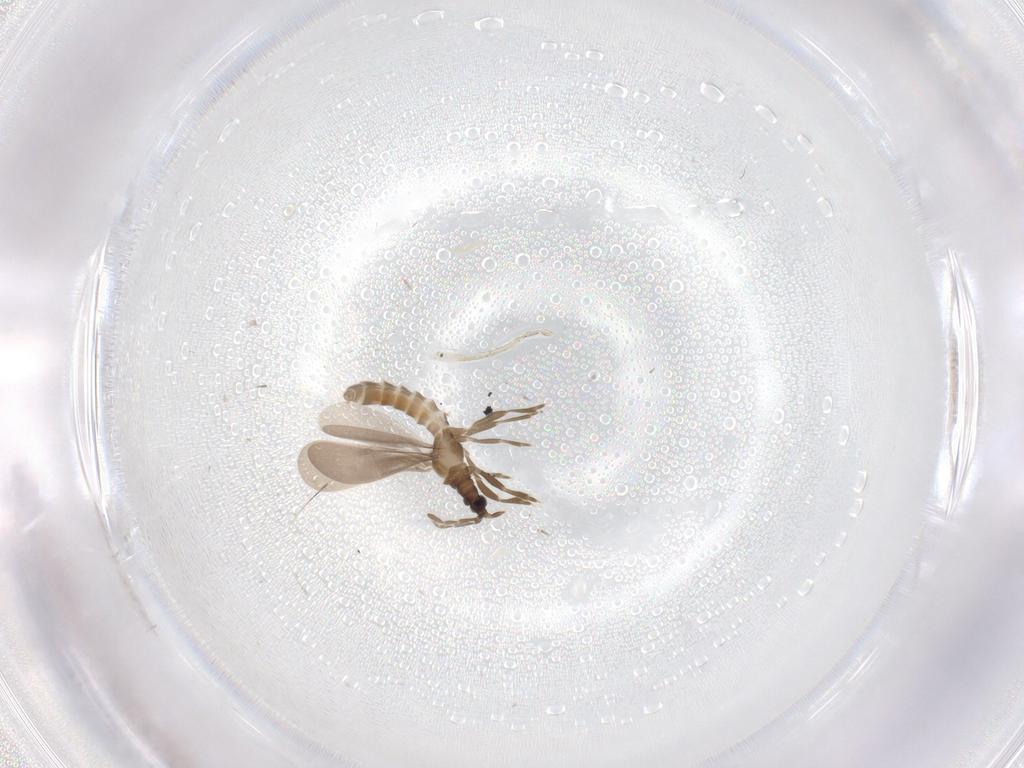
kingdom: Animalia
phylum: Arthropoda
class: Insecta
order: Hemiptera
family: Enicocephalidae
